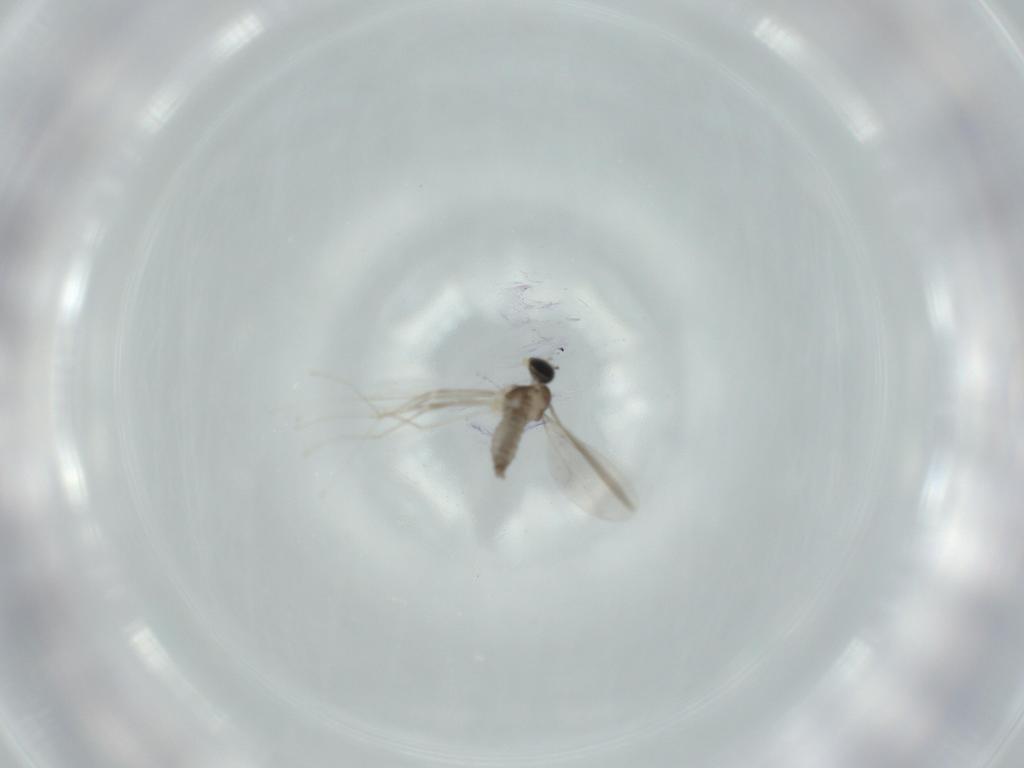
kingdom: Animalia
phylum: Arthropoda
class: Insecta
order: Diptera
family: Cecidomyiidae
